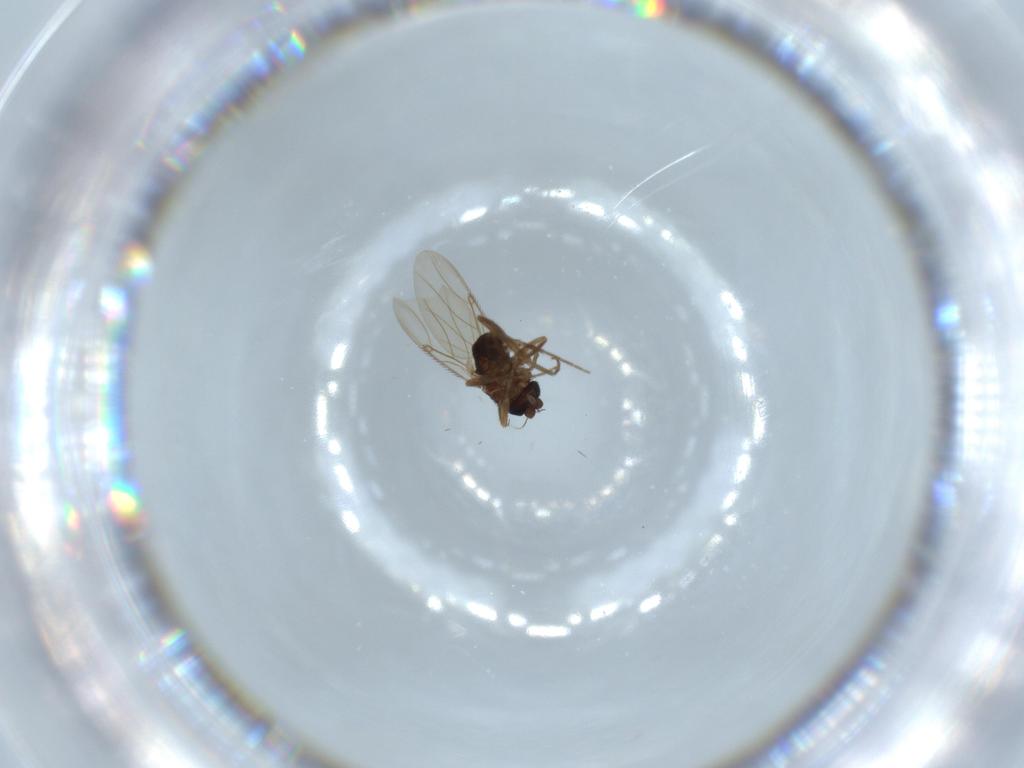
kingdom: Animalia
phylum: Arthropoda
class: Insecta
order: Diptera
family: Phoridae
